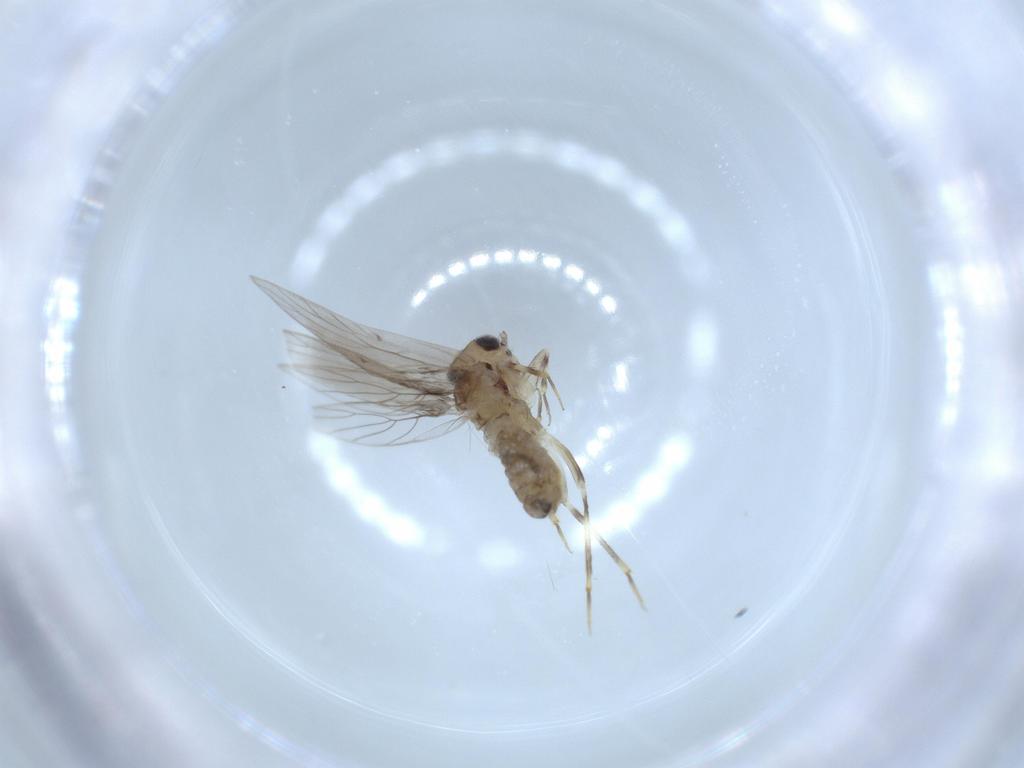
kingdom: Animalia
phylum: Arthropoda
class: Insecta
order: Psocodea
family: Lepidopsocidae
